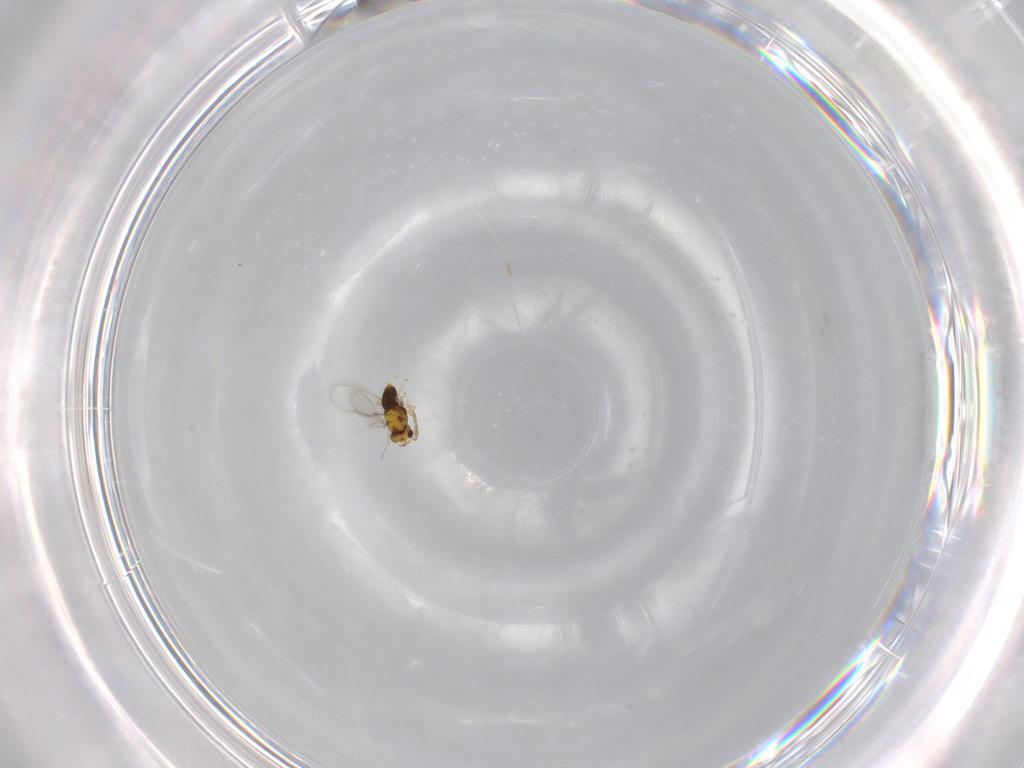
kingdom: Animalia
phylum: Arthropoda
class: Insecta
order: Hymenoptera
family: Aphelinidae
